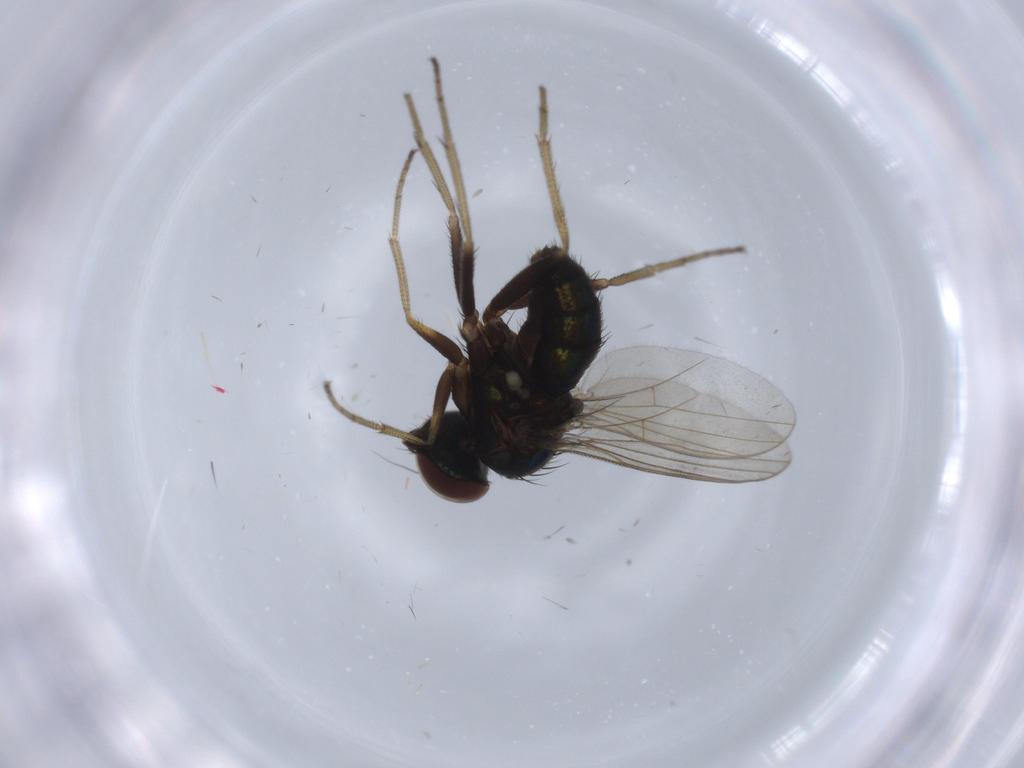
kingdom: Animalia
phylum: Arthropoda
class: Insecta
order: Diptera
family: Dolichopodidae
